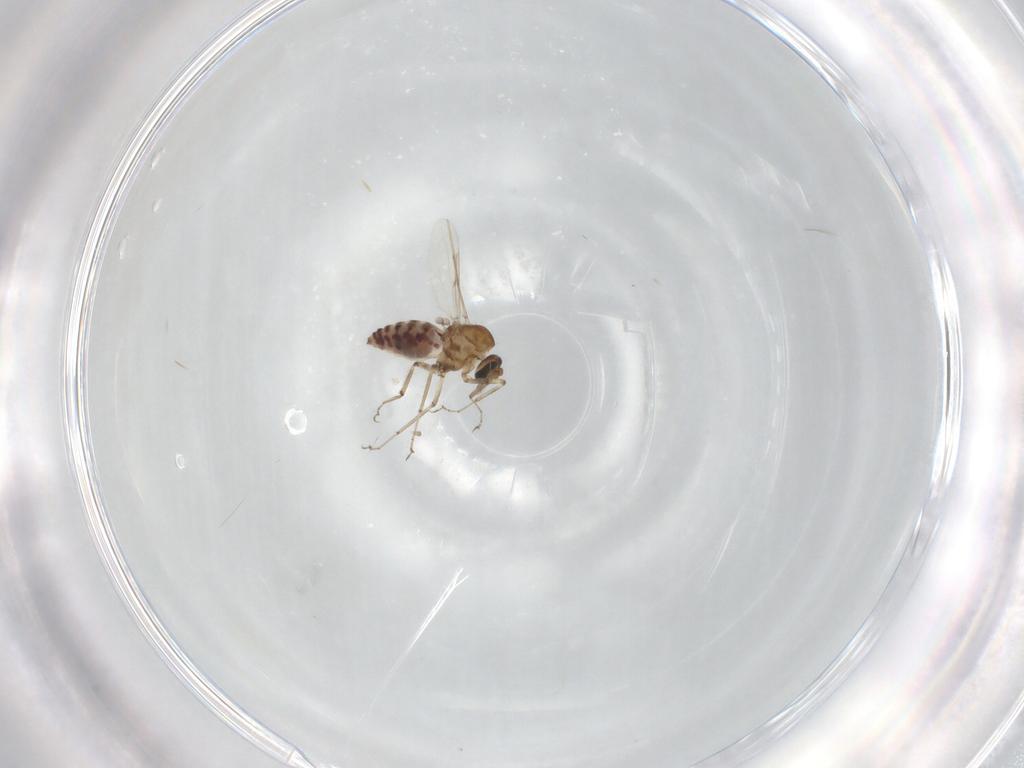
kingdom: Animalia
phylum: Arthropoda
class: Insecta
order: Diptera
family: Ceratopogonidae
